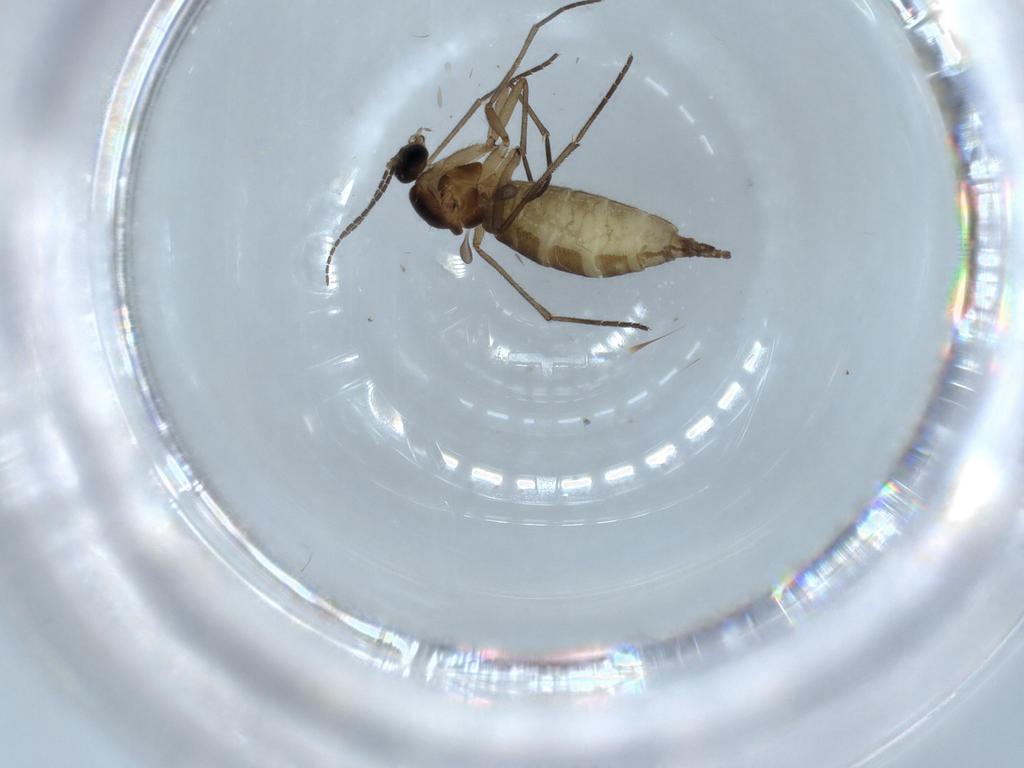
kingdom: Animalia
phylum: Arthropoda
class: Insecta
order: Diptera
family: Sciaridae
